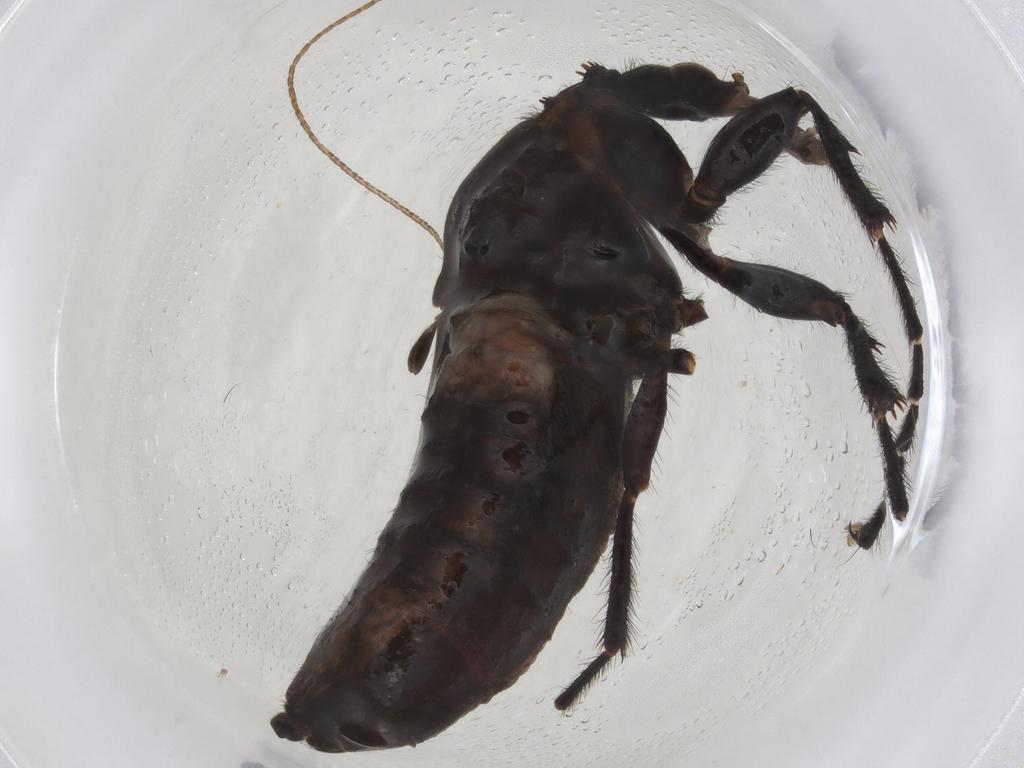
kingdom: Animalia
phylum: Arthropoda
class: Insecta
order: Diptera
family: Bibionidae
